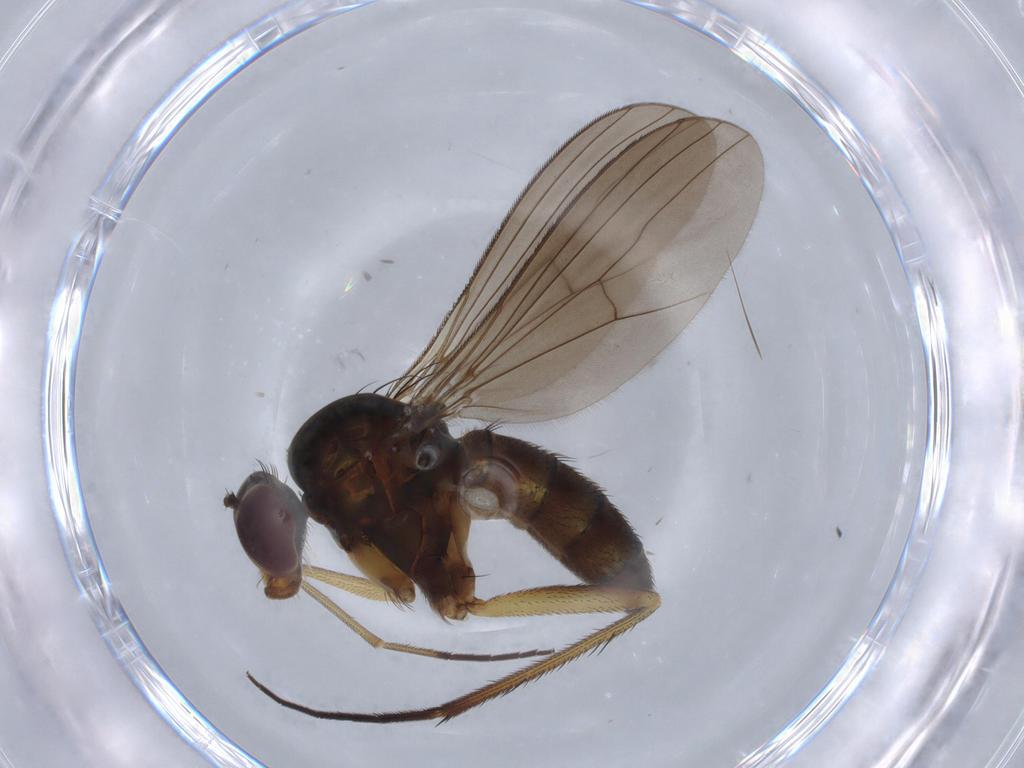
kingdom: Animalia
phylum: Arthropoda
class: Insecta
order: Diptera
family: Dolichopodidae
